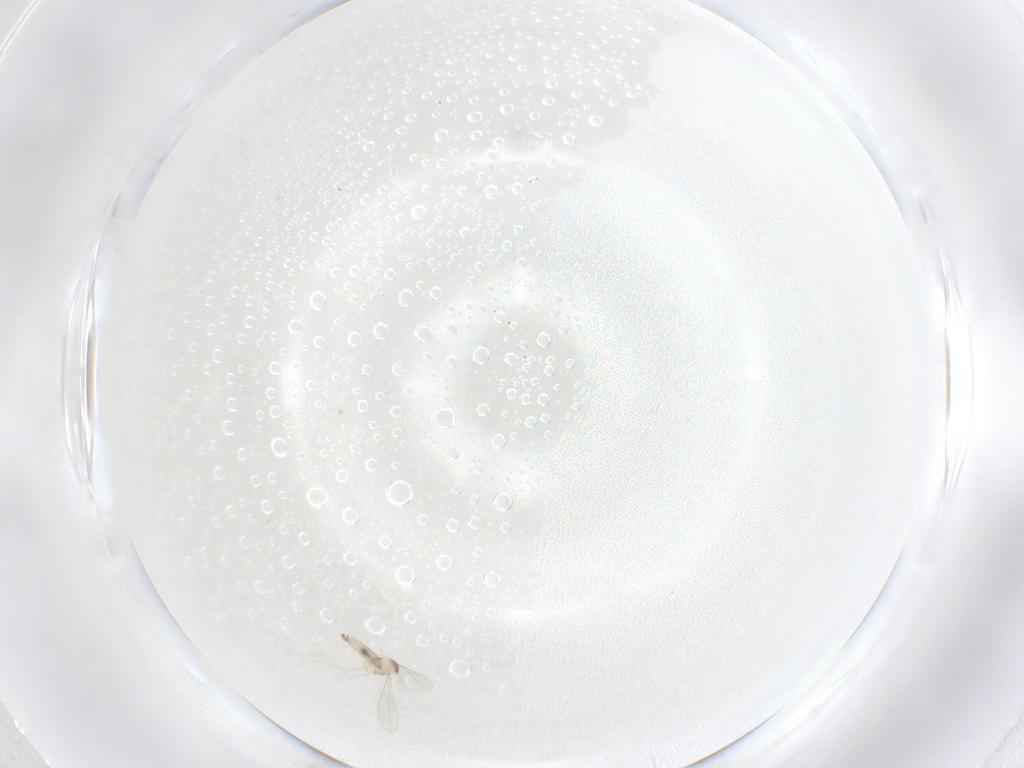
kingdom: Animalia
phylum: Arthropoda
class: Insecta
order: Diptera
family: Cecidomyiidae
